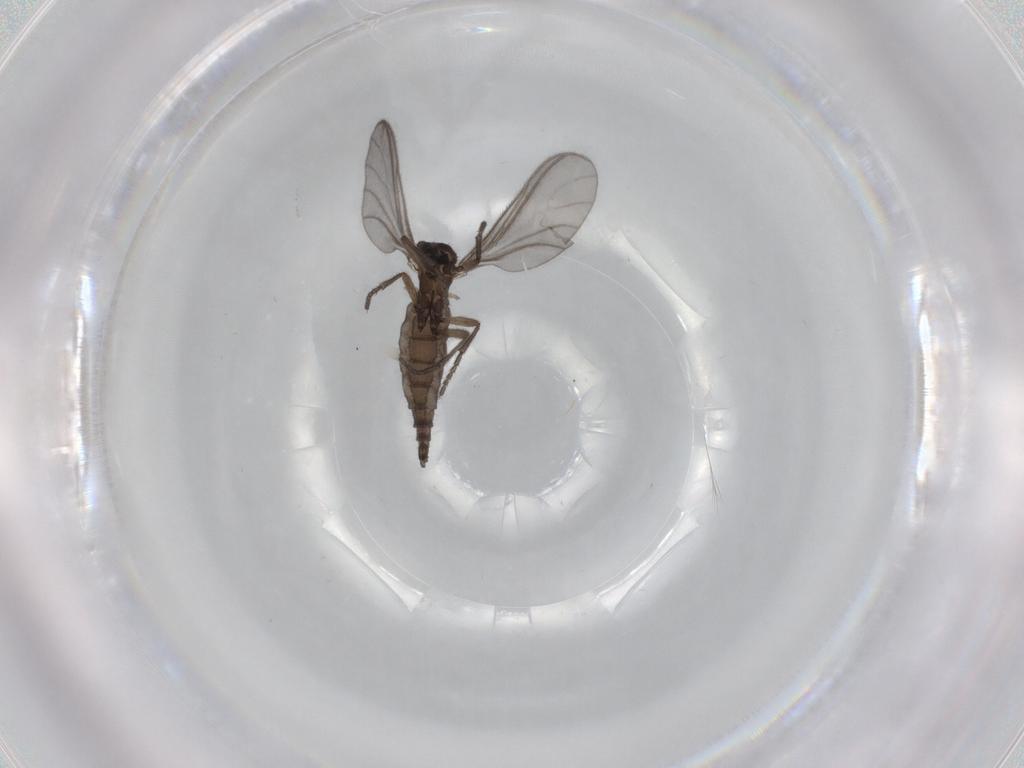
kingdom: Animalia
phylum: Arthropoda
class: Insecta
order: Diptera
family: Sciaridae
